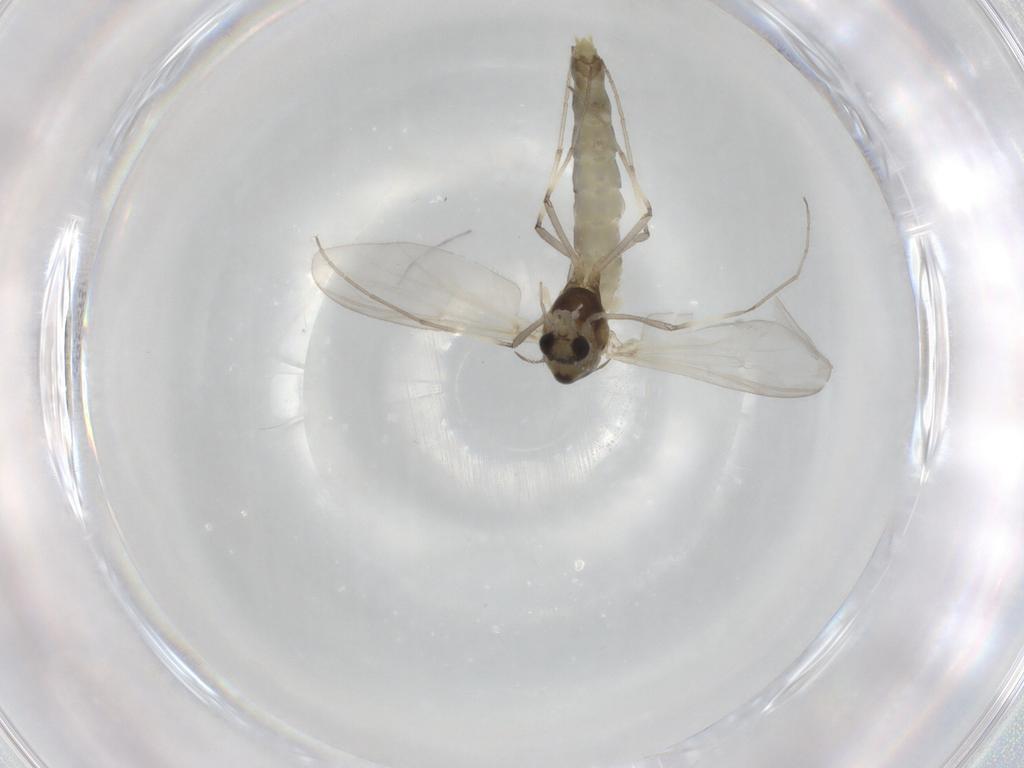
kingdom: Animalia
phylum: Arthropoda
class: Insecta
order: Diptera
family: Chironomidae
